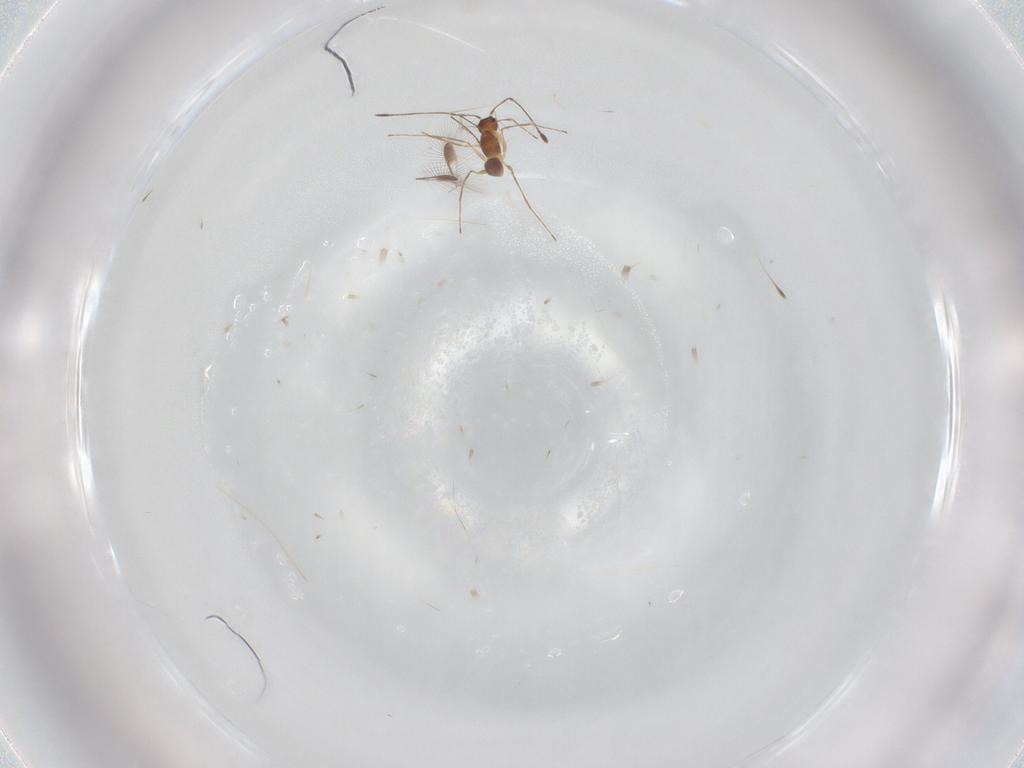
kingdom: Animalia
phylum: Arthropoda
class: Insecta
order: Hymenoptera
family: Mymaridae
